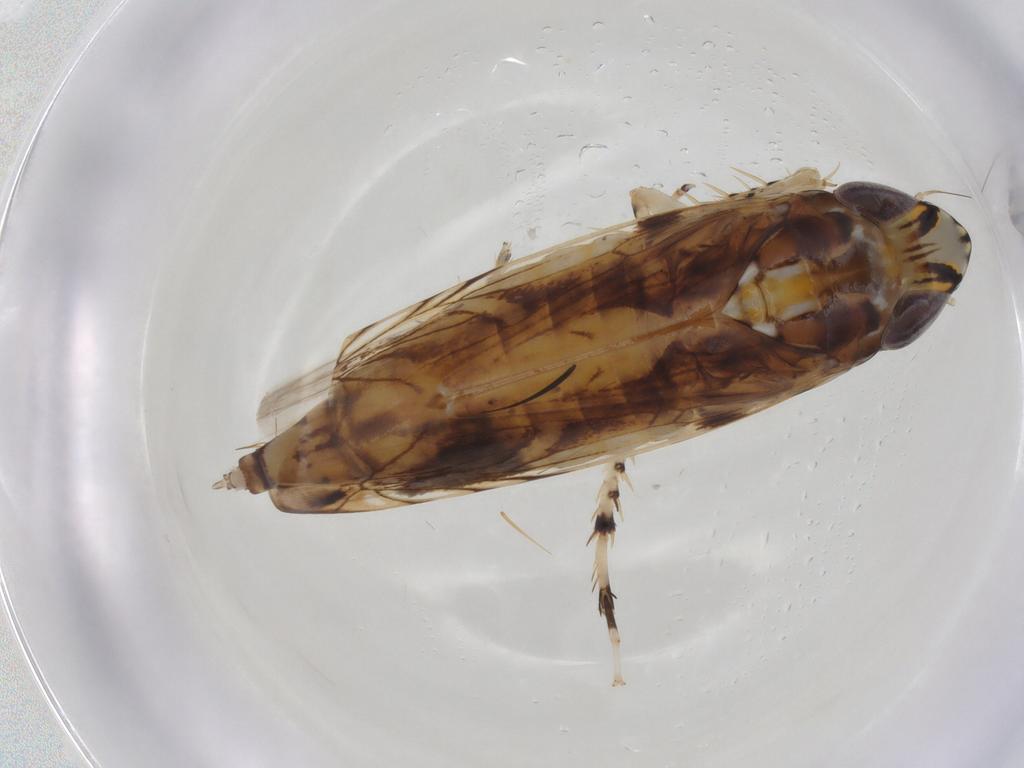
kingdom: Animalia
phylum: Arthropoda
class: Insecta
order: Hemiptera
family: Cicadellidae
